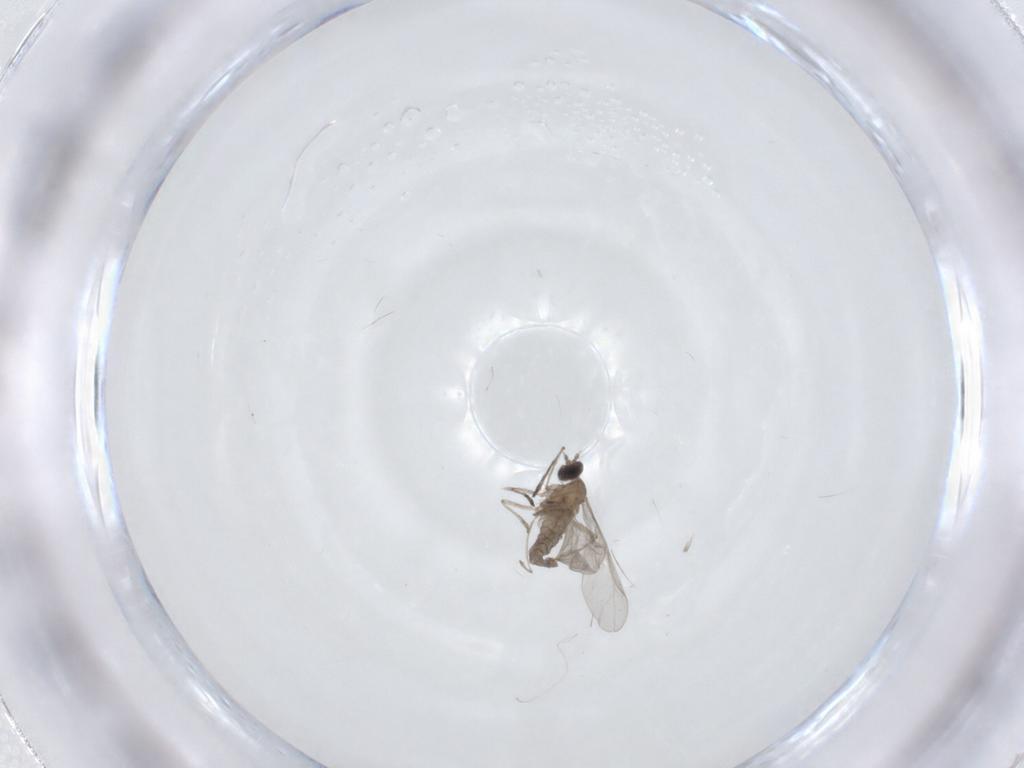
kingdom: Animalia
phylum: Arthropoda
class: Insecta
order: Diptera
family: Cecidomyiidae
